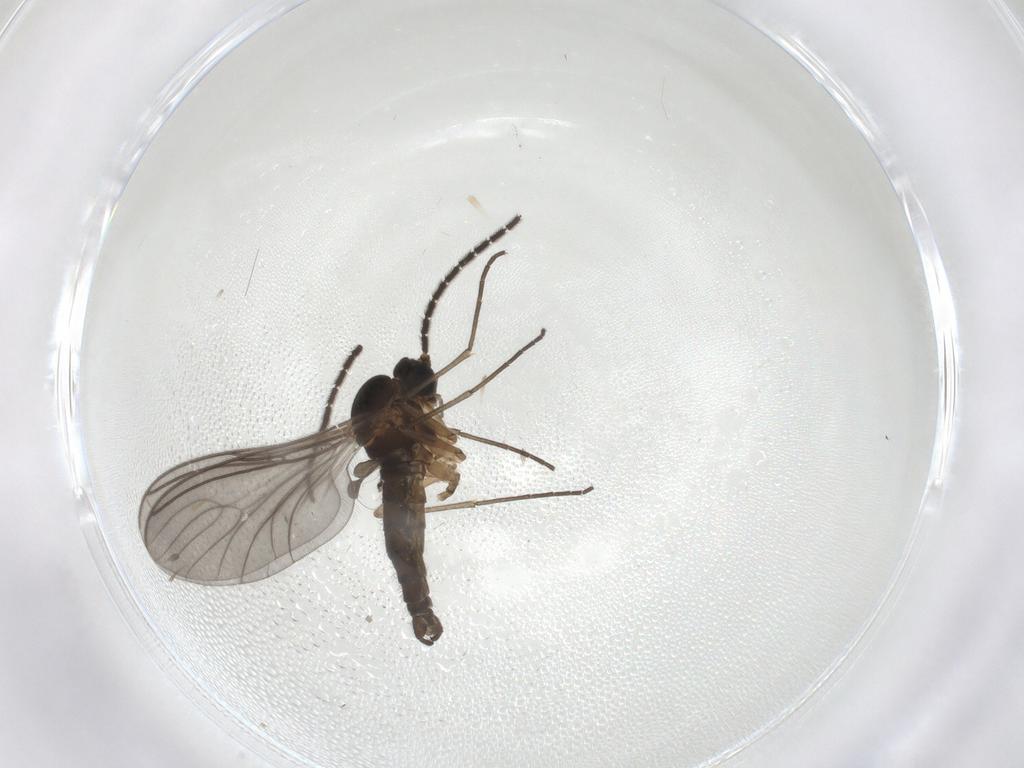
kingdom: Animalia
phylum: Arthropoda
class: Insecta
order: Diptera
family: Sciaridae
